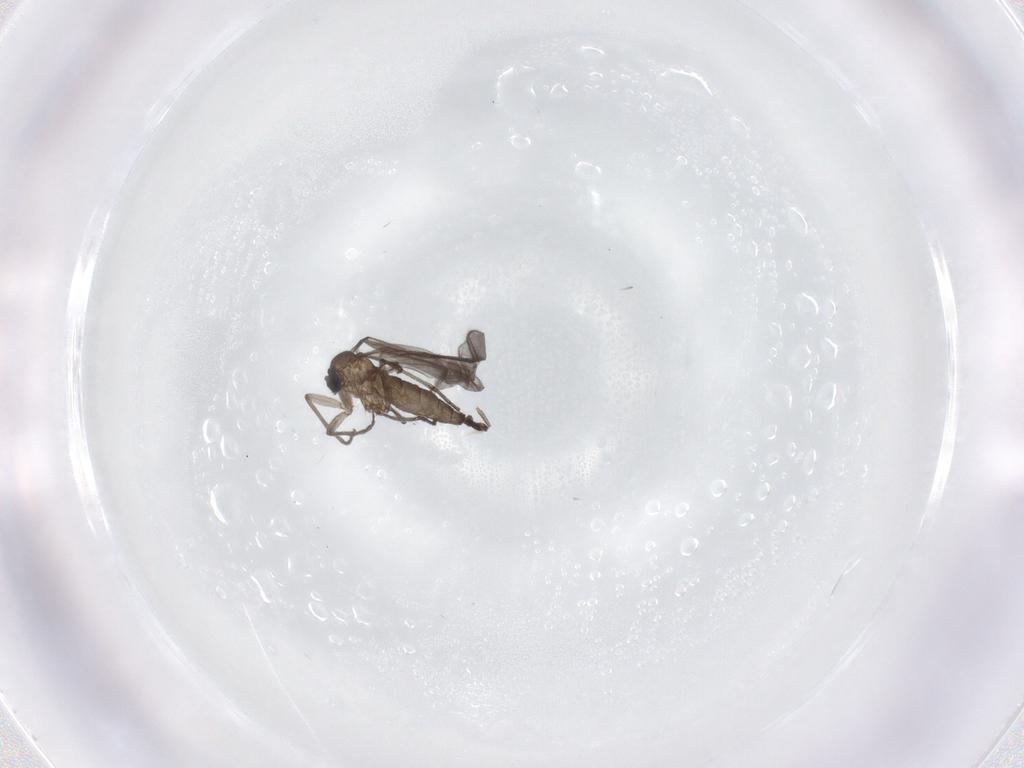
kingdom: Animalia
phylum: Arthropoda
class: Insecta
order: Diptera
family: Sciaridae
